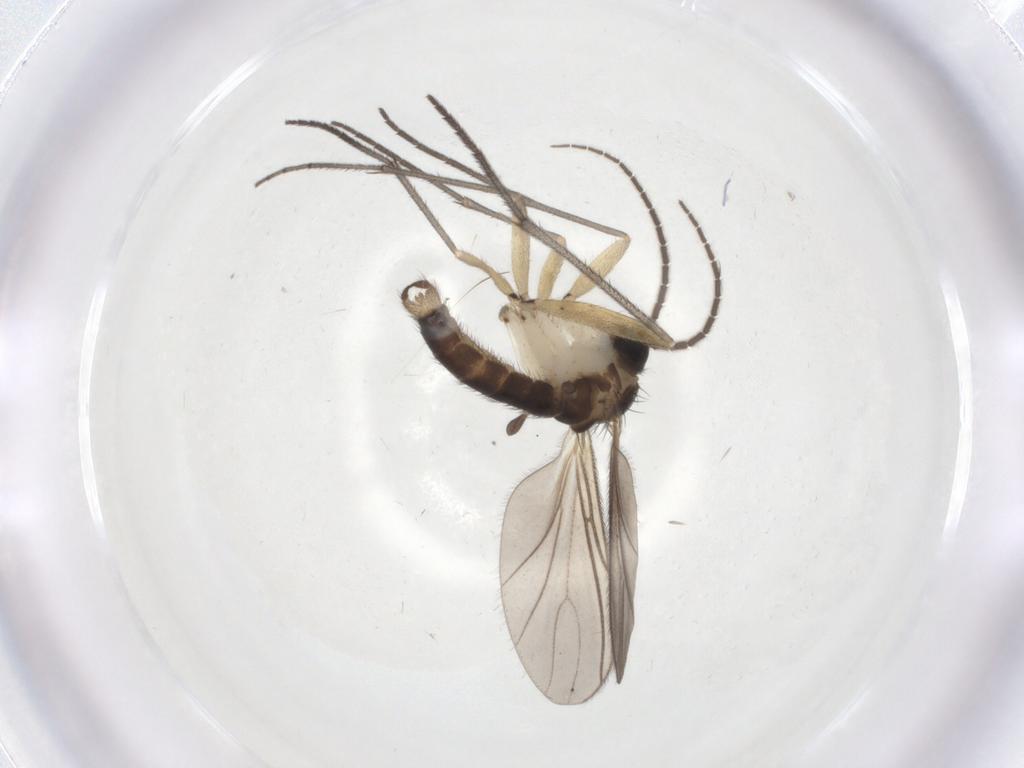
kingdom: Animalia
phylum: Arthropoda
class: Insecta
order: Diptera
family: Sciaridae
